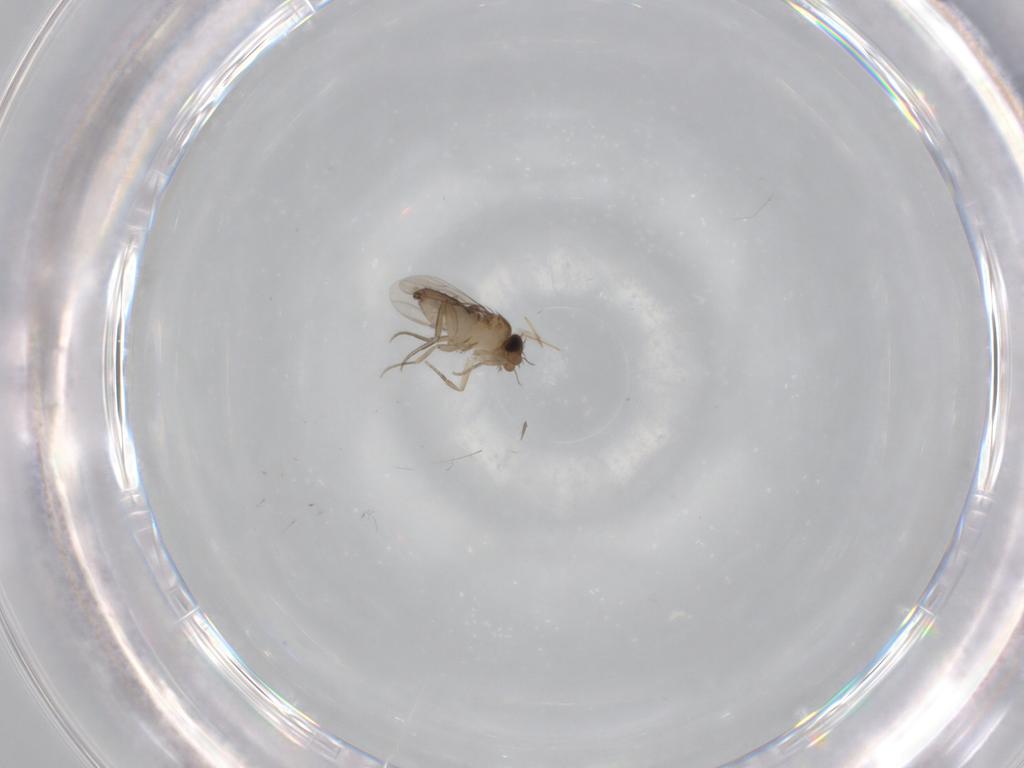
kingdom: Animalia
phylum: Arthropoda
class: Insecta
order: Diptera
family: Phoridae
